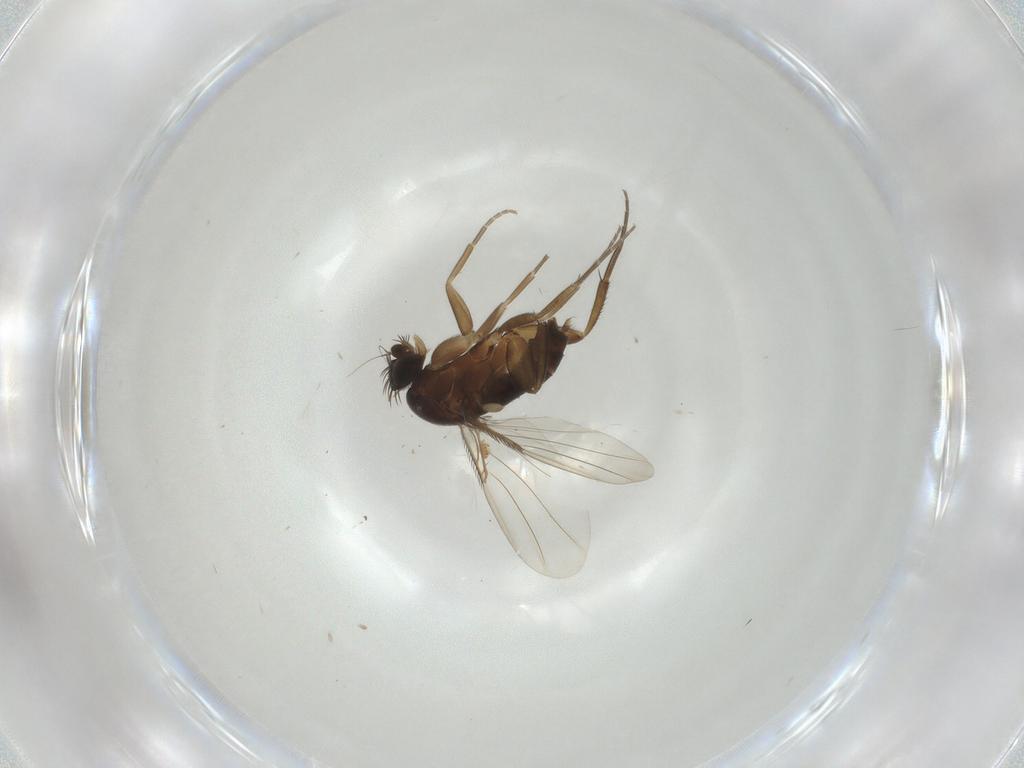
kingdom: Animalia
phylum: Arthropoda
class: Insecta
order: Diptera
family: Phoridae
